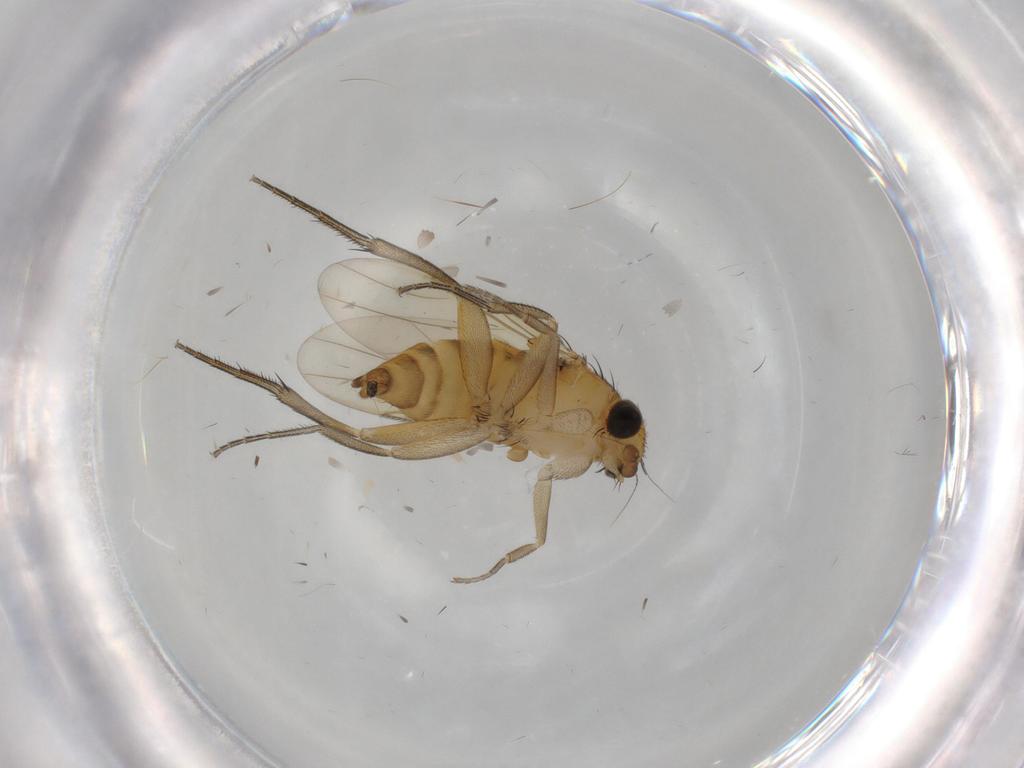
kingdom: Animalia
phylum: Arthropoda
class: Insecta
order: Diptera
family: Phoridae
